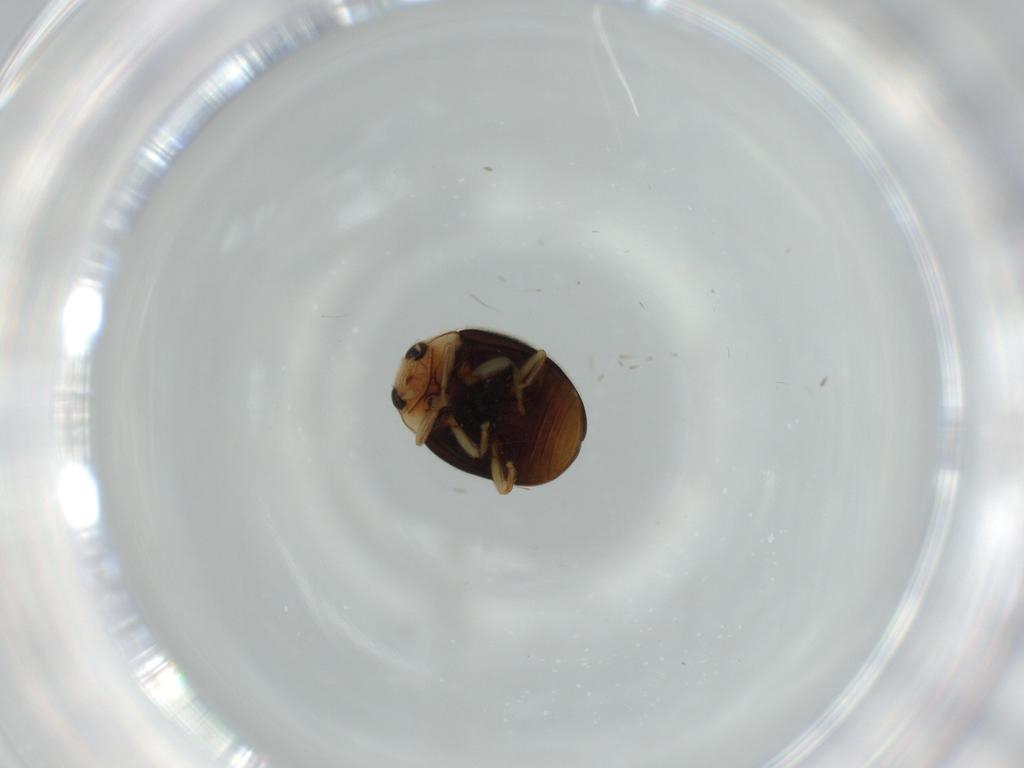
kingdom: Animalia
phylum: Arthropoda
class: Insecta
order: Coleoptera
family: Coccinellidae
